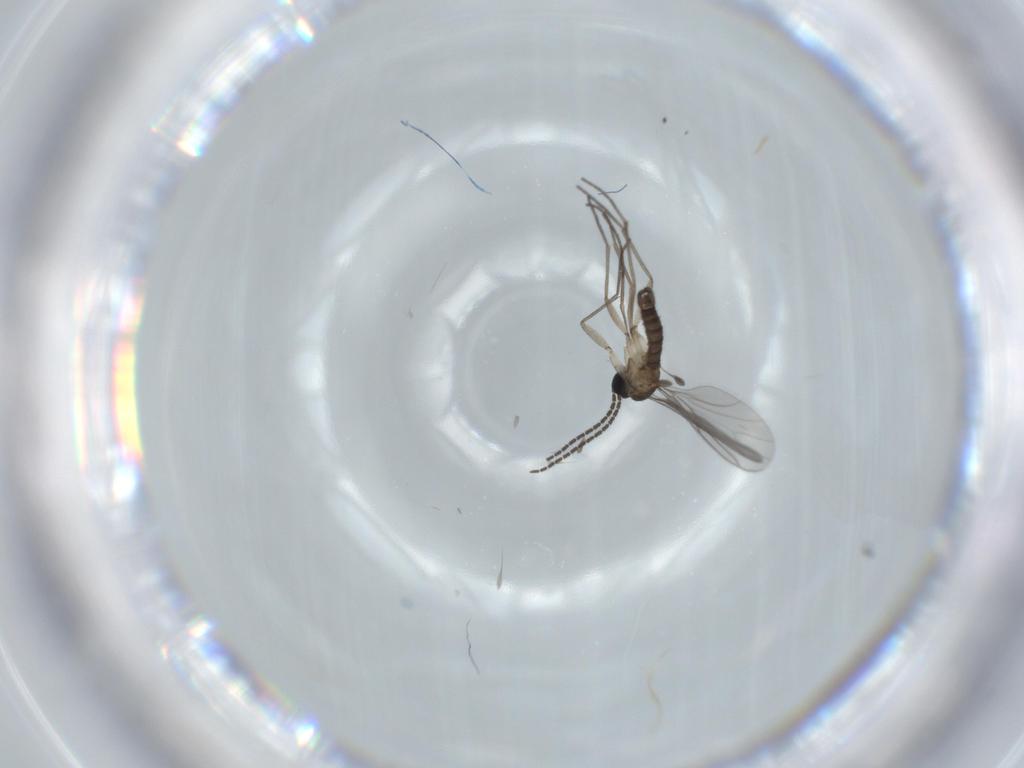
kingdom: Animalia
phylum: Arthropoda
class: Insecta
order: Diptera
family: Sciaridae
